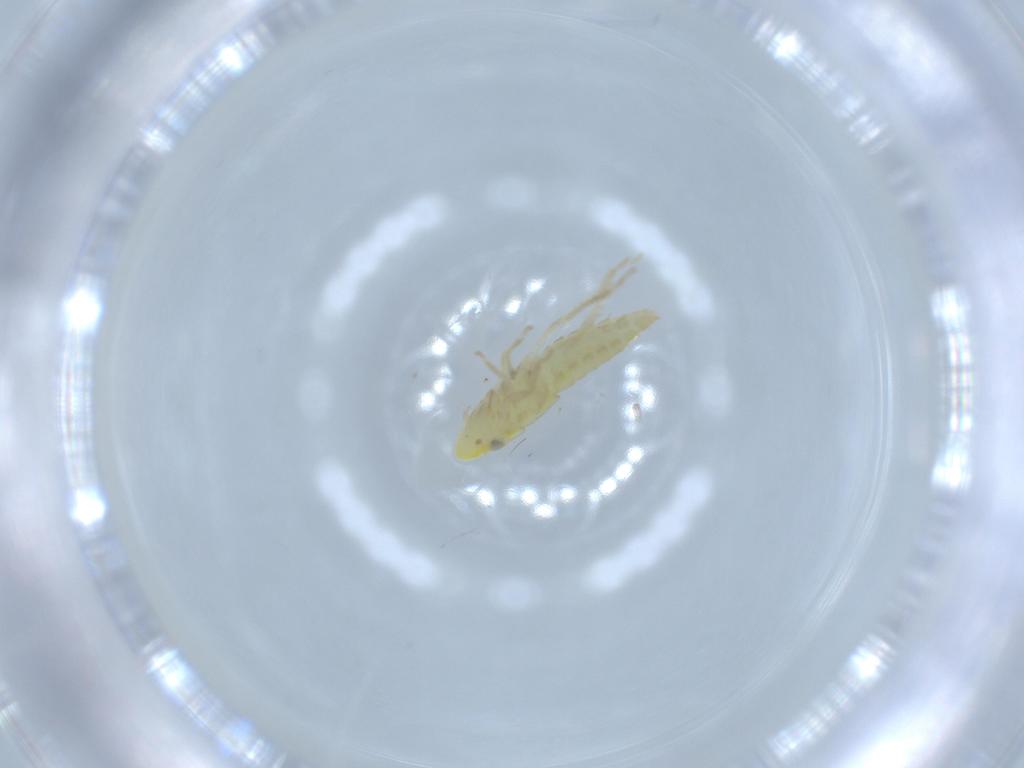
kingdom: Animalia
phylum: Arthropoda
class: Insecta
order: Hemiptera
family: Cicadellidae
